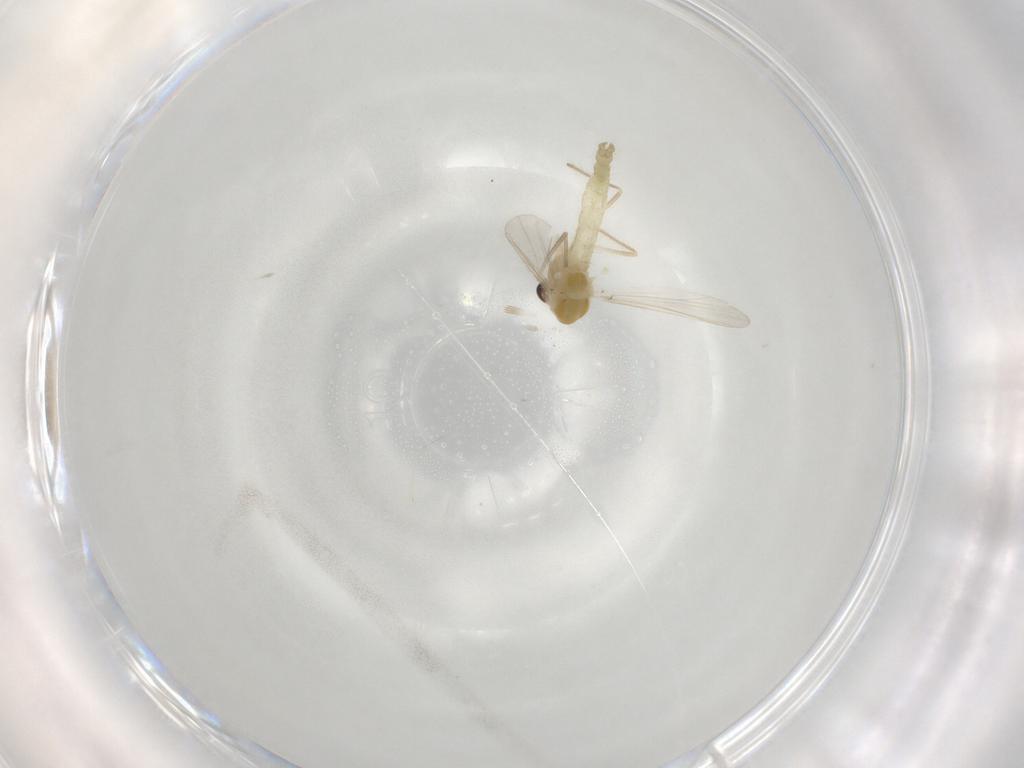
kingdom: Animalia
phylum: Arthropoda
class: Insecta
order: Diptera
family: Chironomidae
